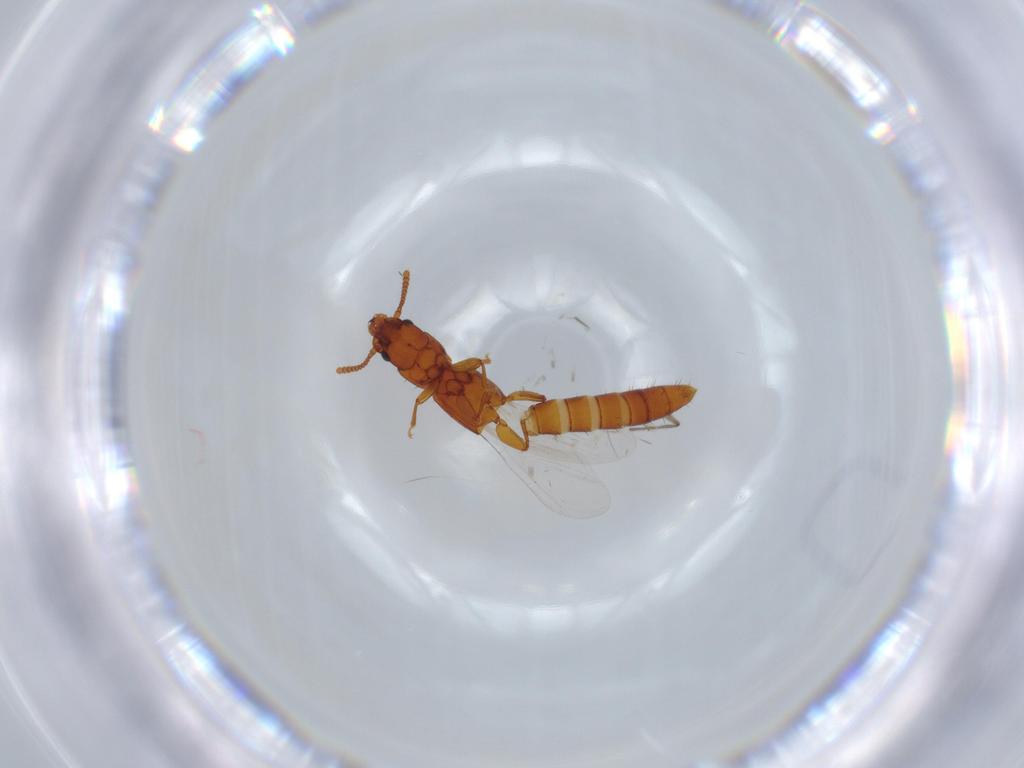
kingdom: Animalia
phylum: Arthropoda
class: Insecta
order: Coleoptera
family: Staphylinidae
